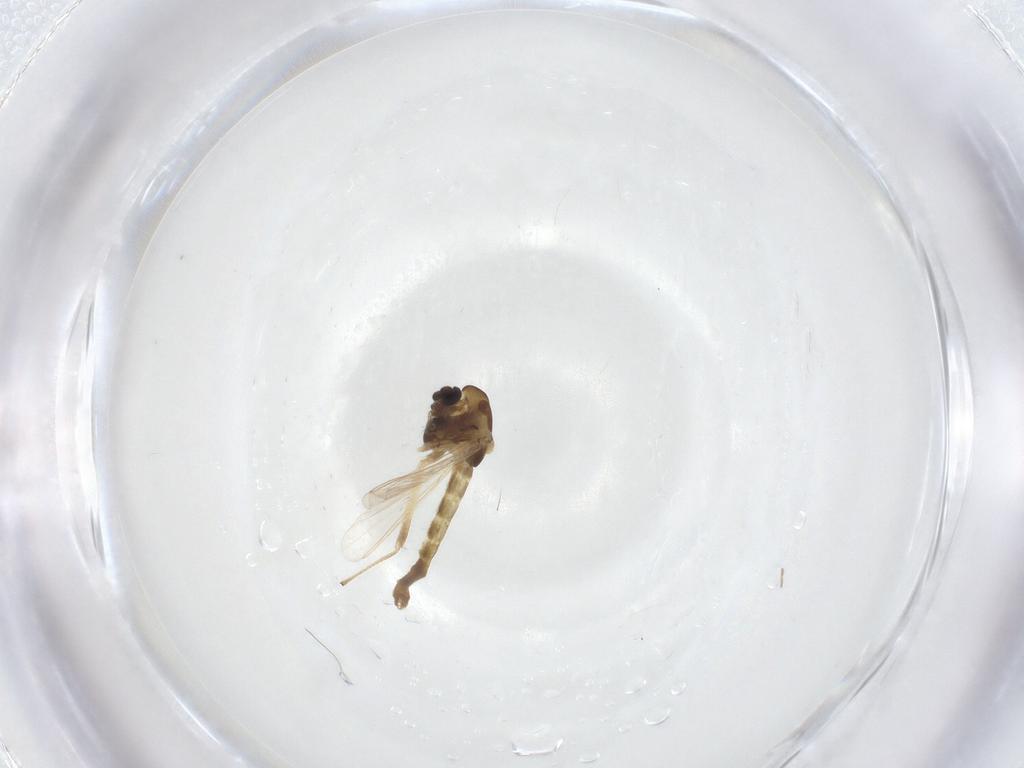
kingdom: Animalia
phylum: Arthropoda
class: Insecta
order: Diptera
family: Chironomidae
